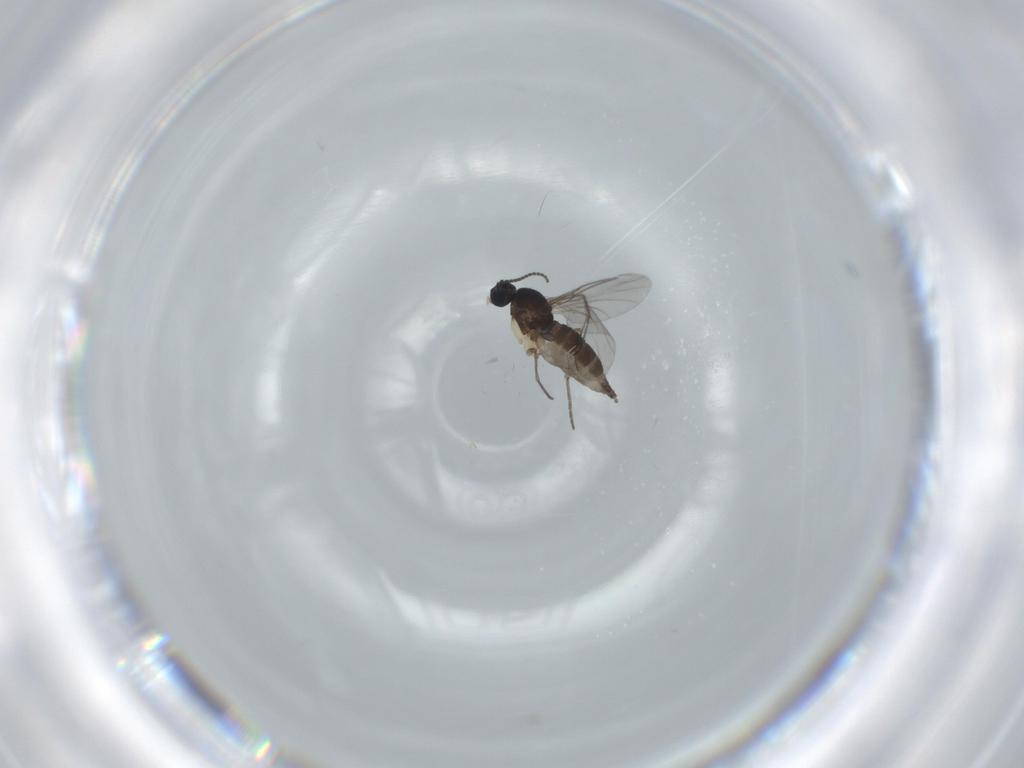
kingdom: Animalia
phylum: Arthropoda
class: Insecta
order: Diptera
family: Sciaridae
